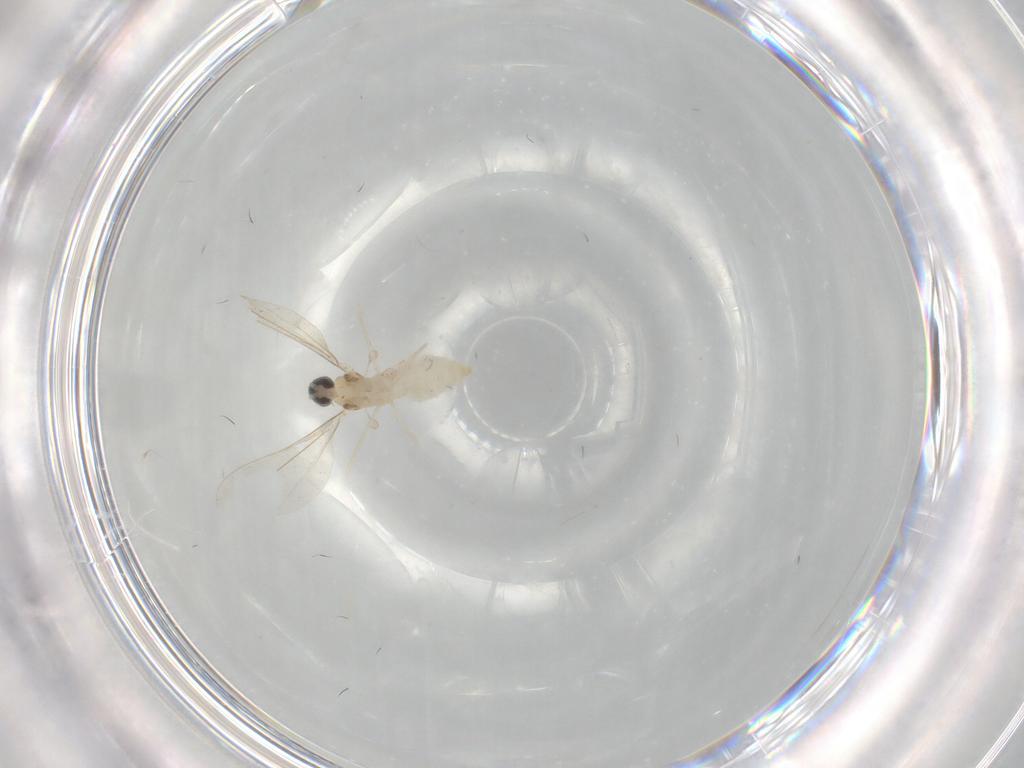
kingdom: Animalia
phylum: Arthropoda
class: Insecta
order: Diptera
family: Cecidomyiidae
